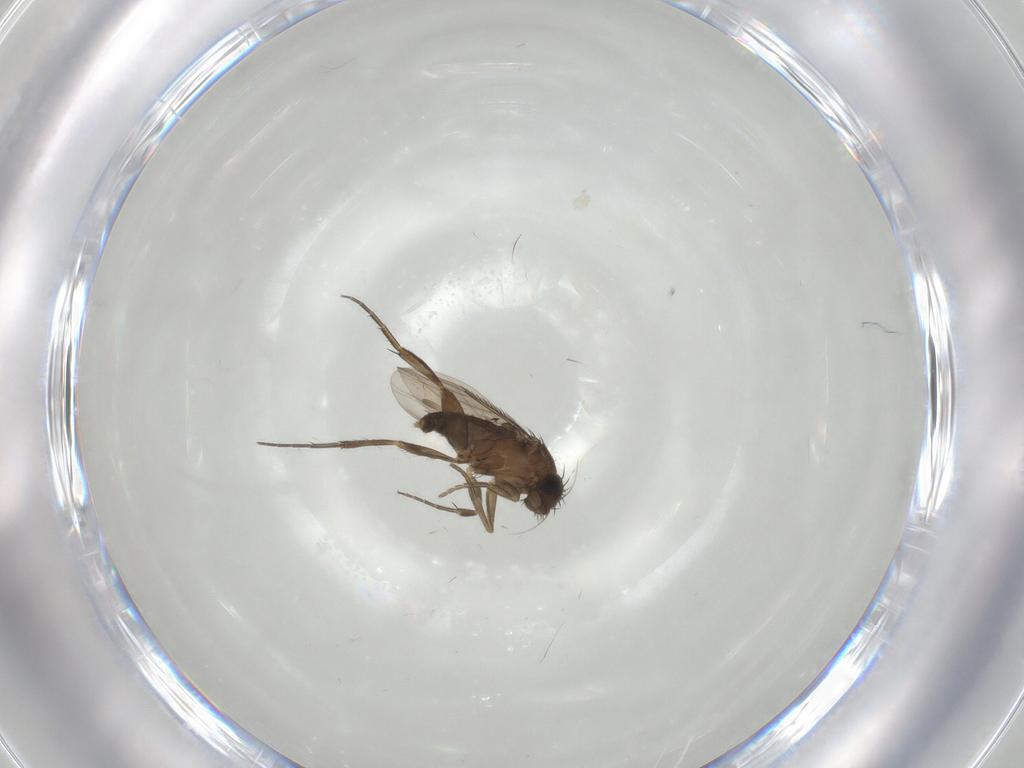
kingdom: Animalia
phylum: Arthropoda
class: Insecta
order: Diptera
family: Phoridae
